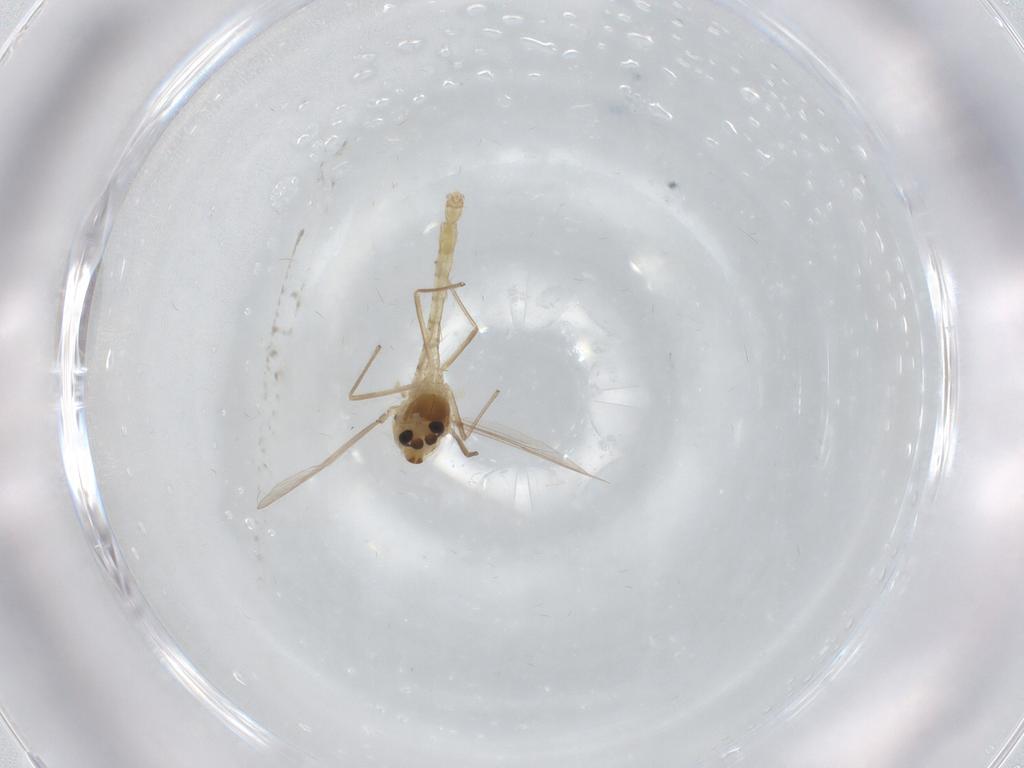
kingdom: Animalia
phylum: Arthropoda
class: Insecta
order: Diptera
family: Chironomidae
